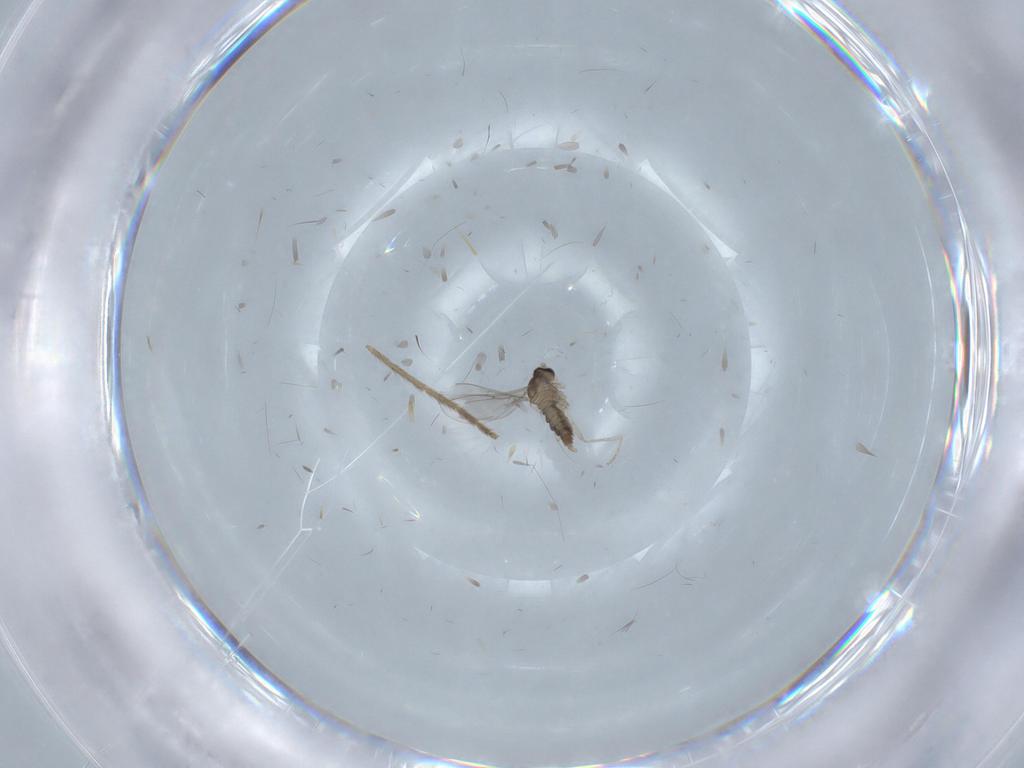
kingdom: Animalia
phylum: Arthropoda
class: Insecta
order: Diptera
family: Cecidomyiidae
